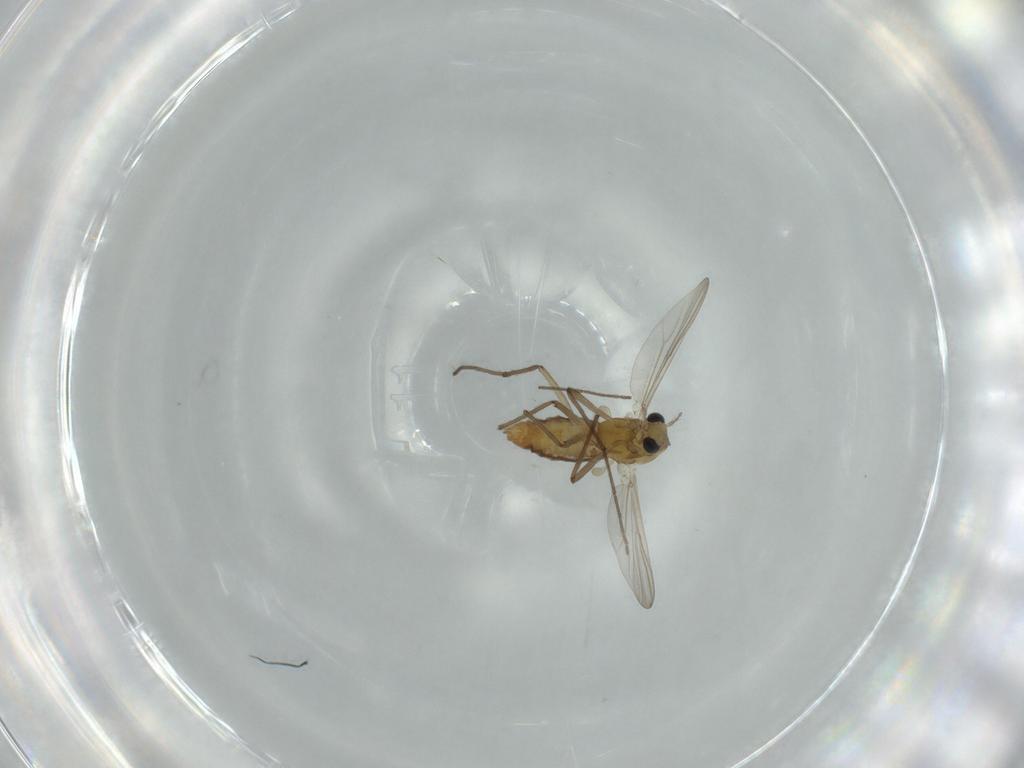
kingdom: Animalia
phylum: Arthropoda
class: Insecta
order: Diptera
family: Chironomidae
